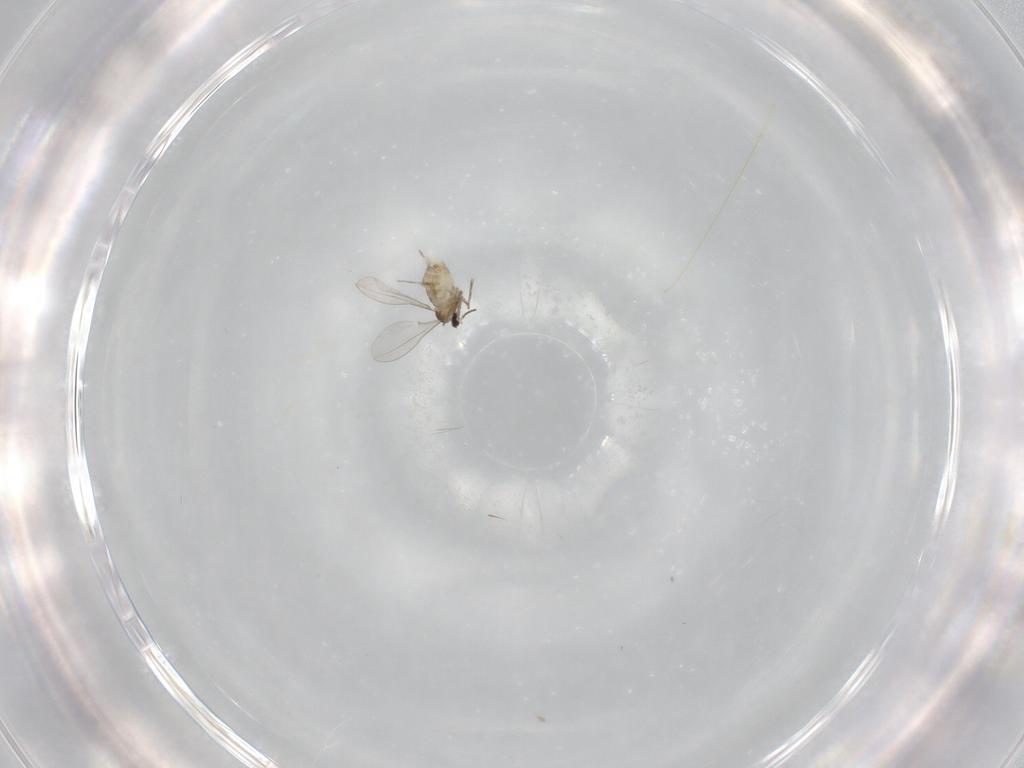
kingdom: Animalia
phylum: Arthropoda
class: Insecta
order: Diptera
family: Cecidomyiidae
